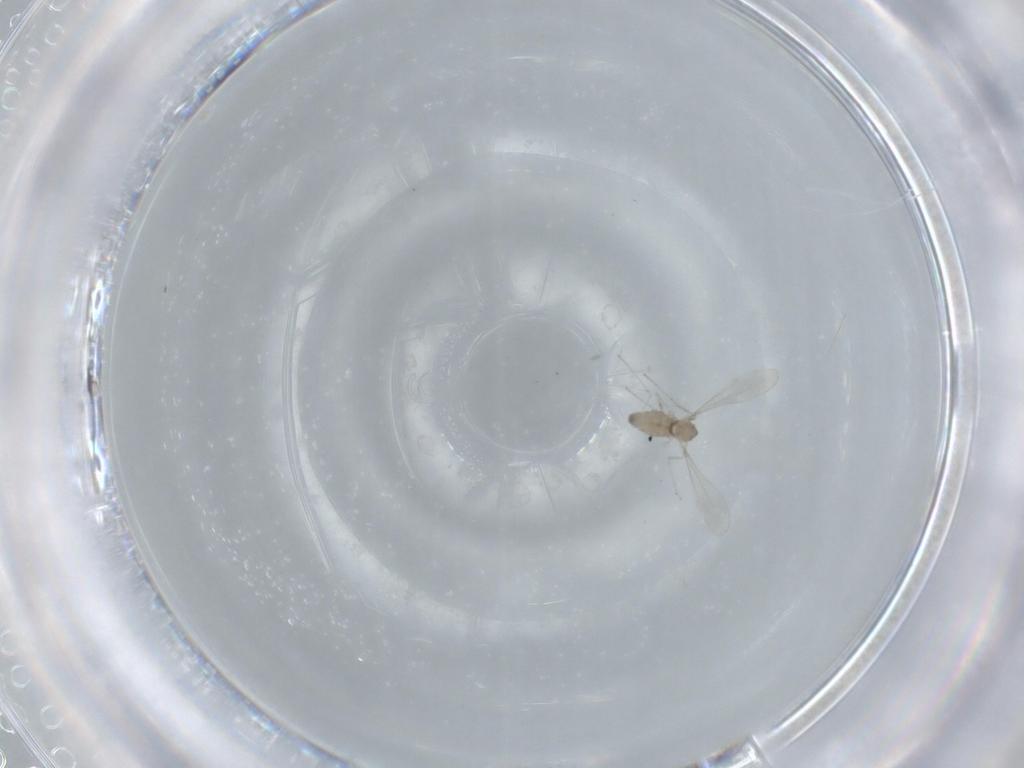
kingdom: Animalia
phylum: Arthropoda
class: Insecta
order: Diptera
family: Cecidomyiidae
